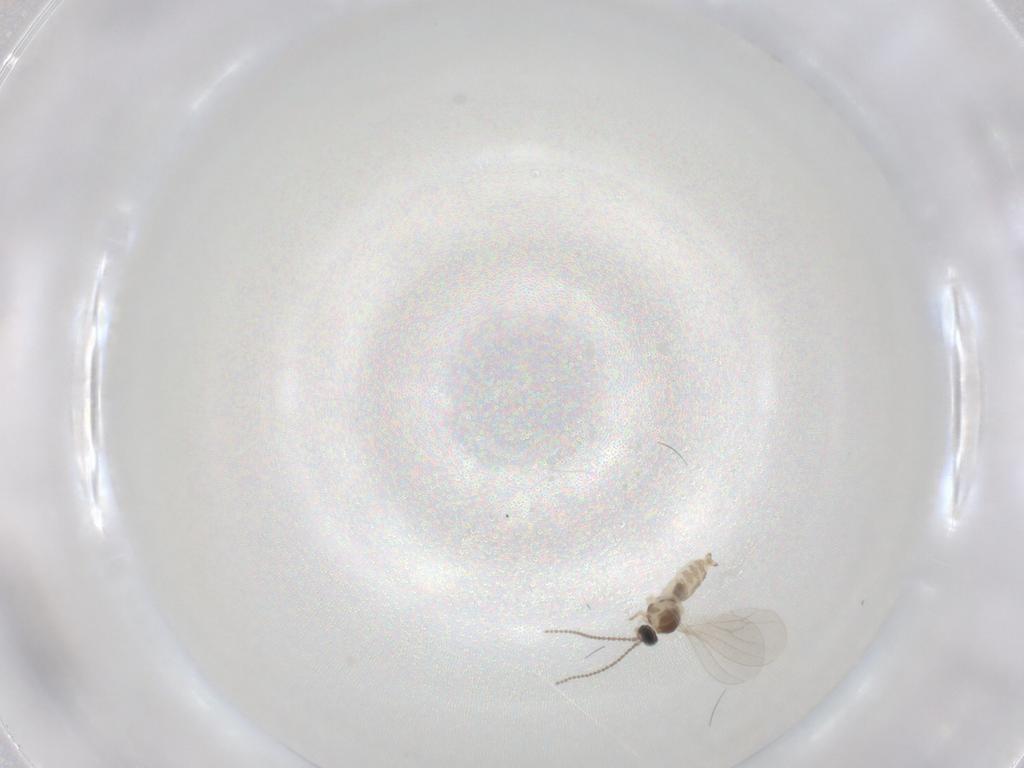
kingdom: Animalia
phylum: Arthropoda
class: Insecta
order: Diptera
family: Cecidomyiidae
